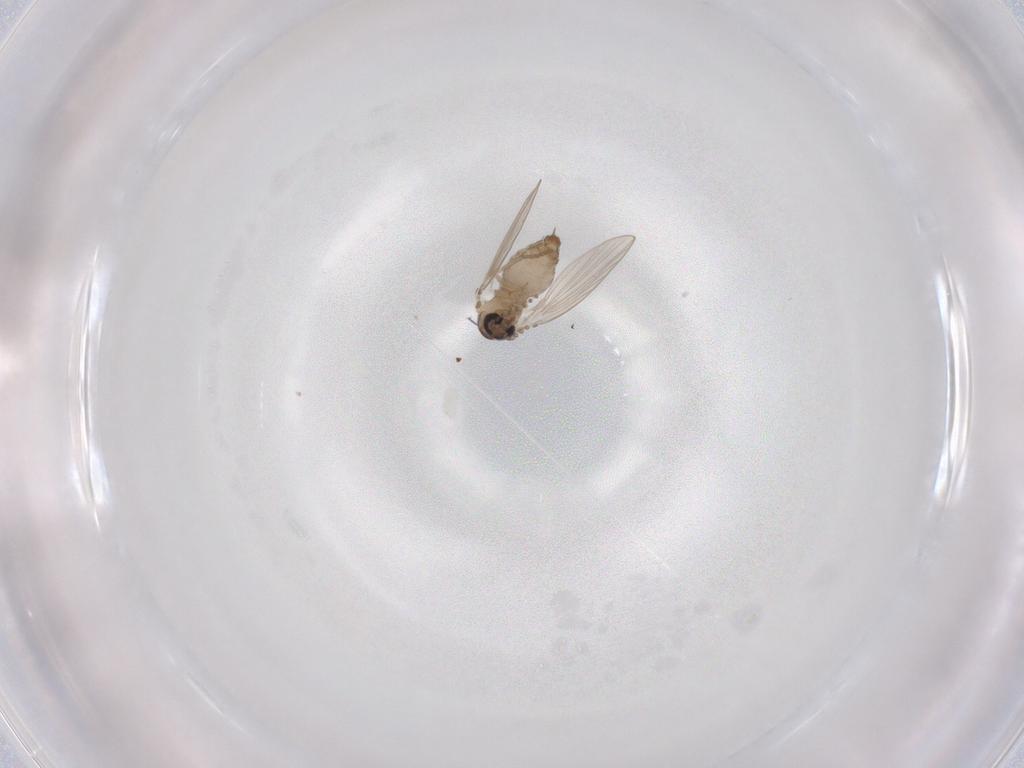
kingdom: Animalia
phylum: Arthropoda
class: Insecta
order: Diptera
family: Psychodidae
